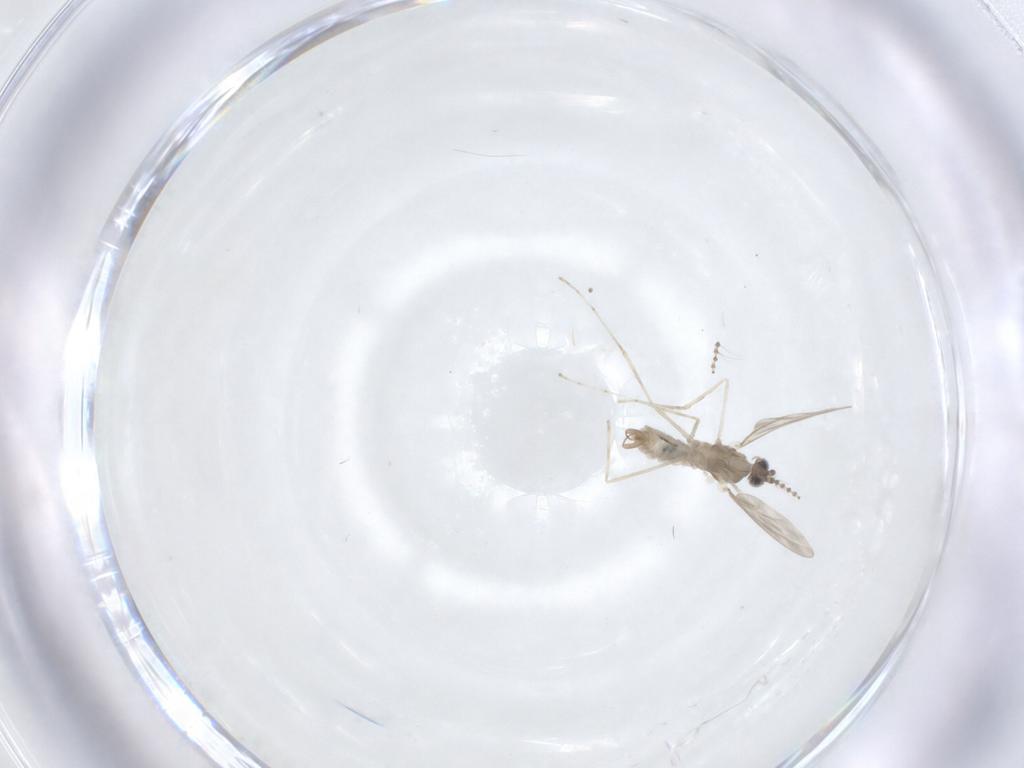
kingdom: Animalia
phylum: Arthropoda
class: Insecta
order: Diptera
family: Cecidomyiidae
